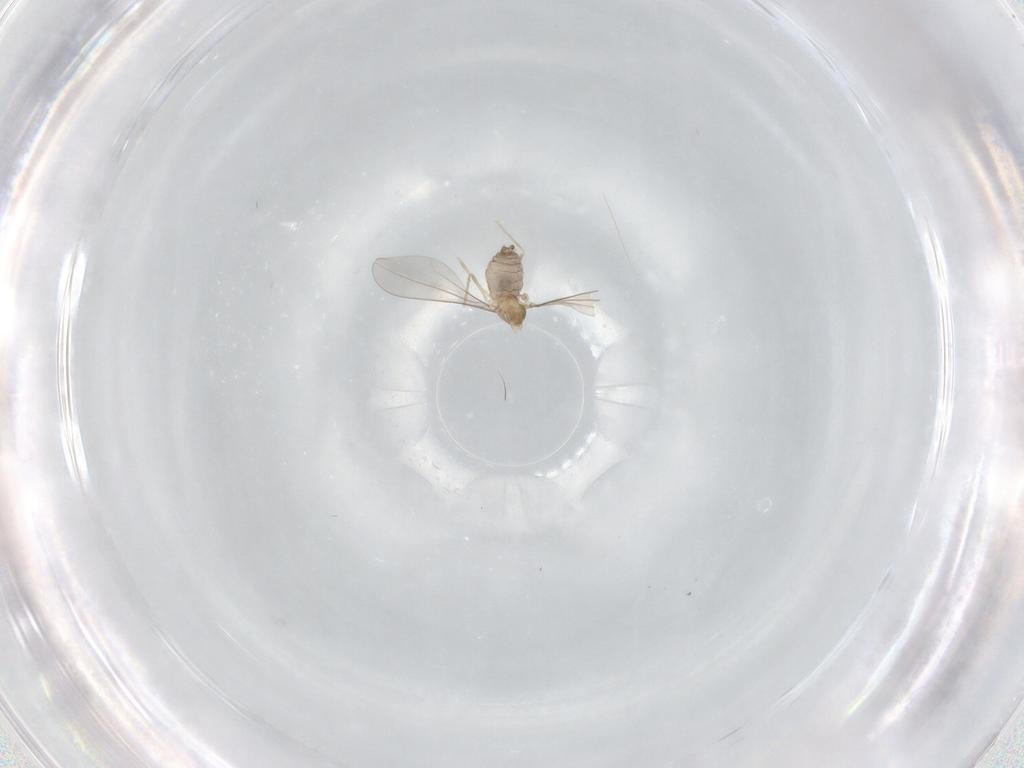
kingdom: Animalia
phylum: Arthropoda
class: Insecta
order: Diptera
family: Cecidomyiidae
